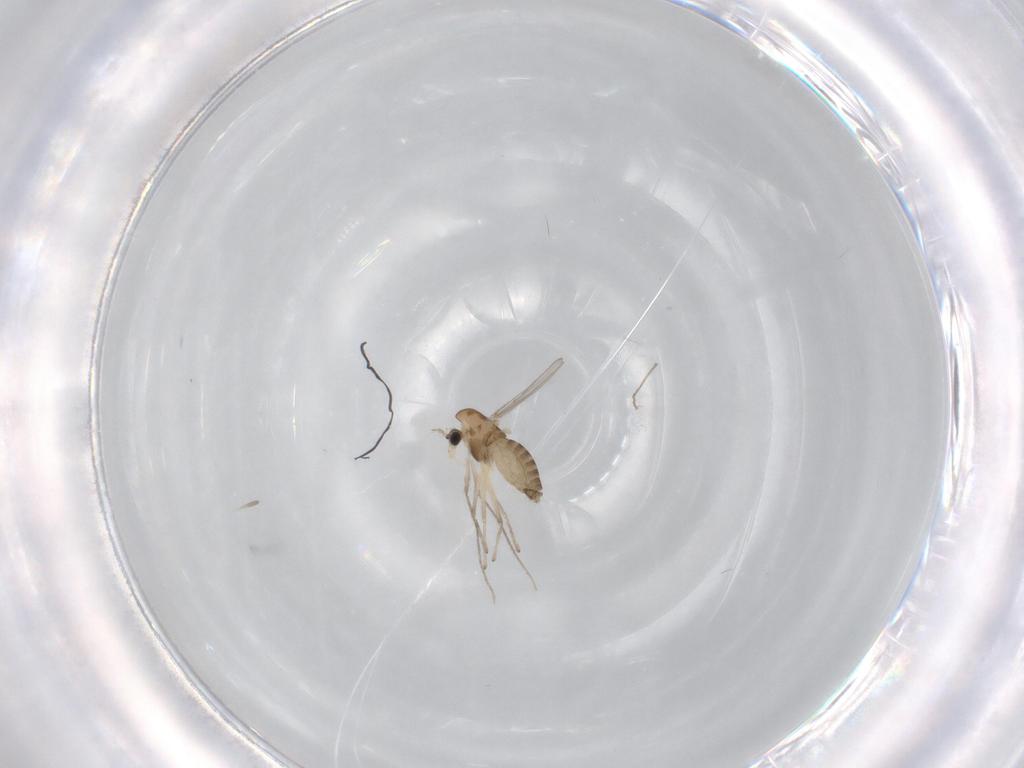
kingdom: Animalia
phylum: Arthropoda
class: Insecta
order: Diptera
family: Chironomidae
